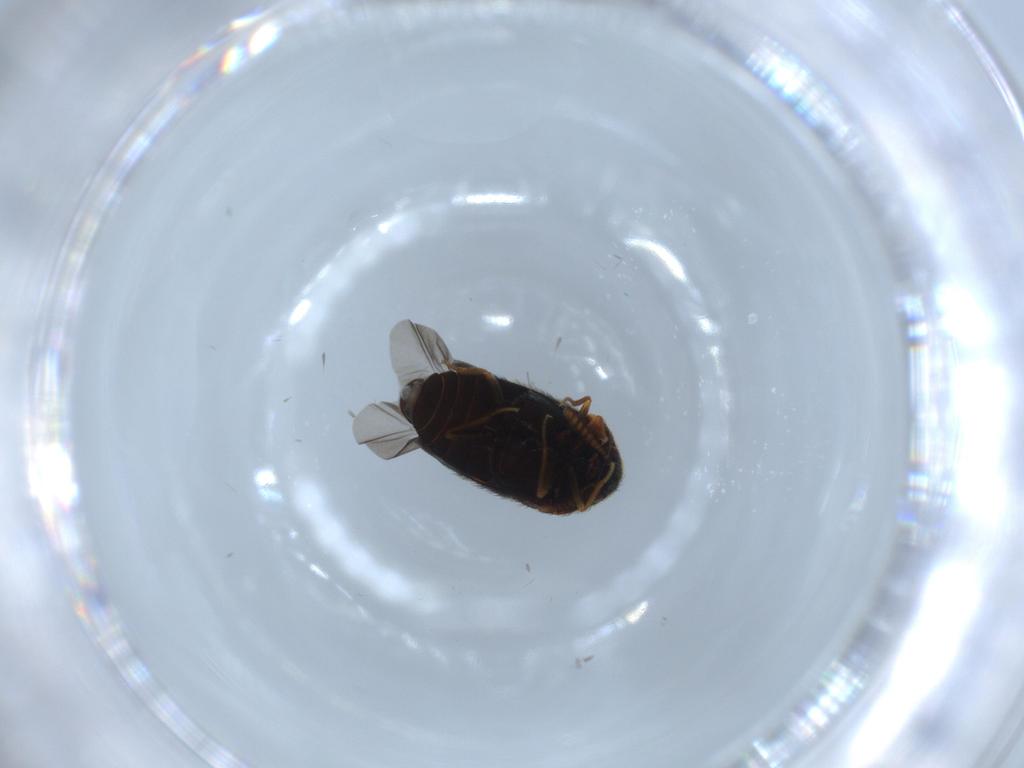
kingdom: Animalia
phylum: Arthropoda
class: Insecta
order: Coleoptera
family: Dermestidae
